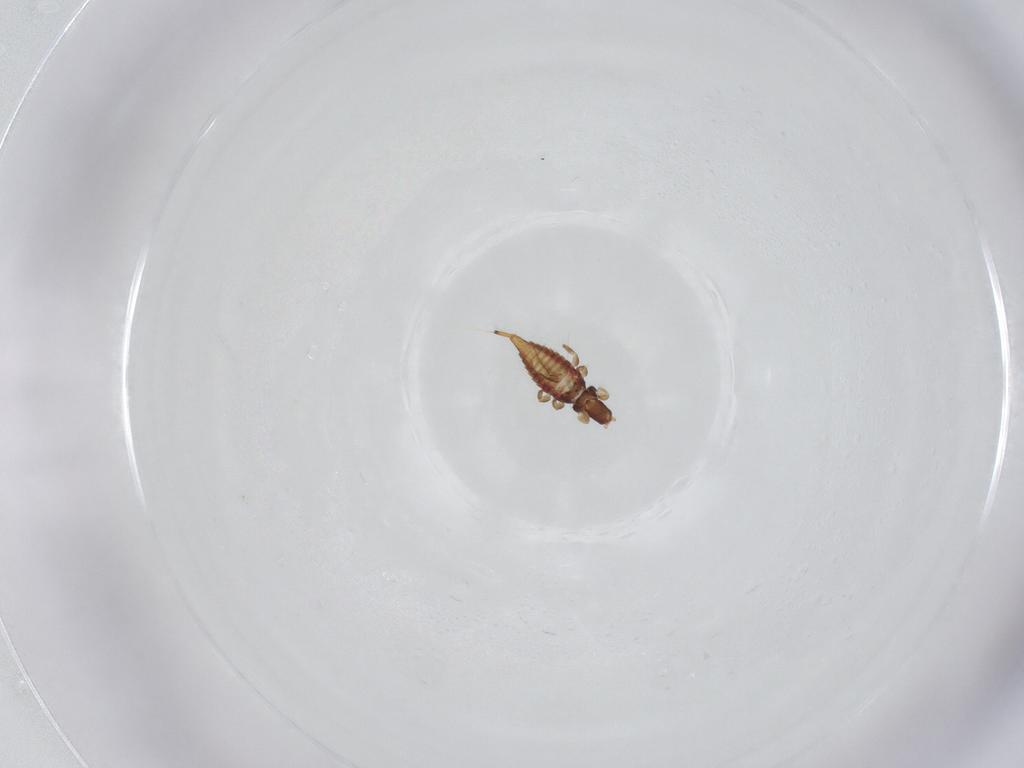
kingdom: Animalia
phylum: Arthropoda
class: Insecta
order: Thysanoptera
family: Phlaeothripidae
